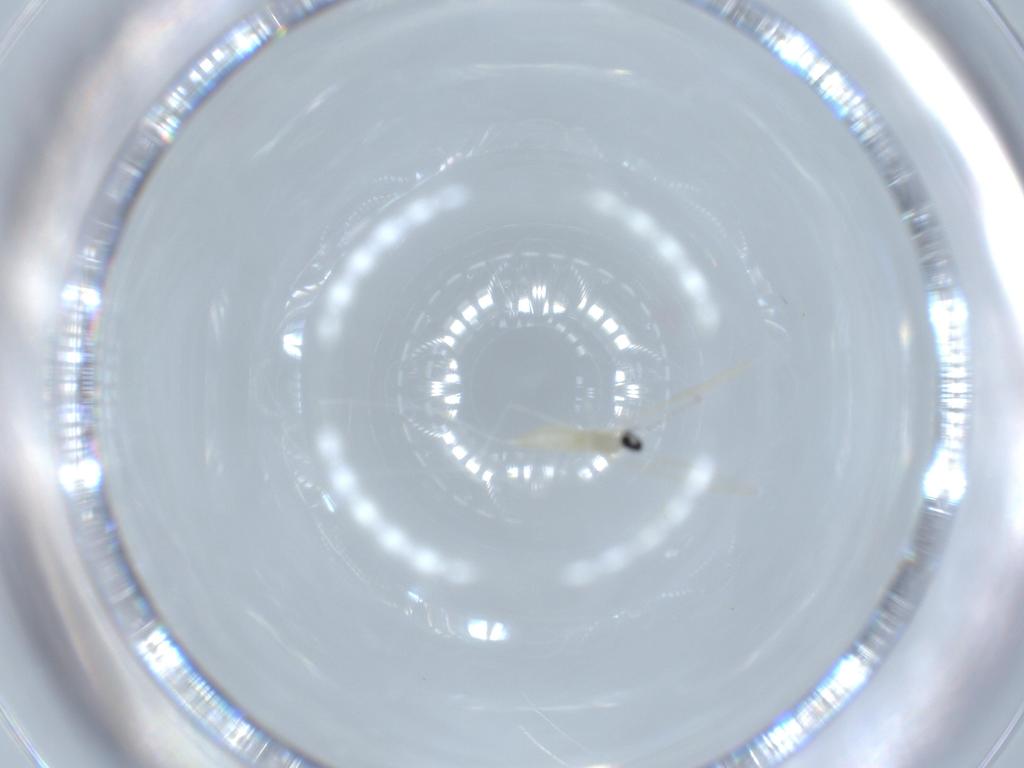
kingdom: Animalia
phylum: Arthropoda
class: Insecta
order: Diptera
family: Cecidomyiidae
